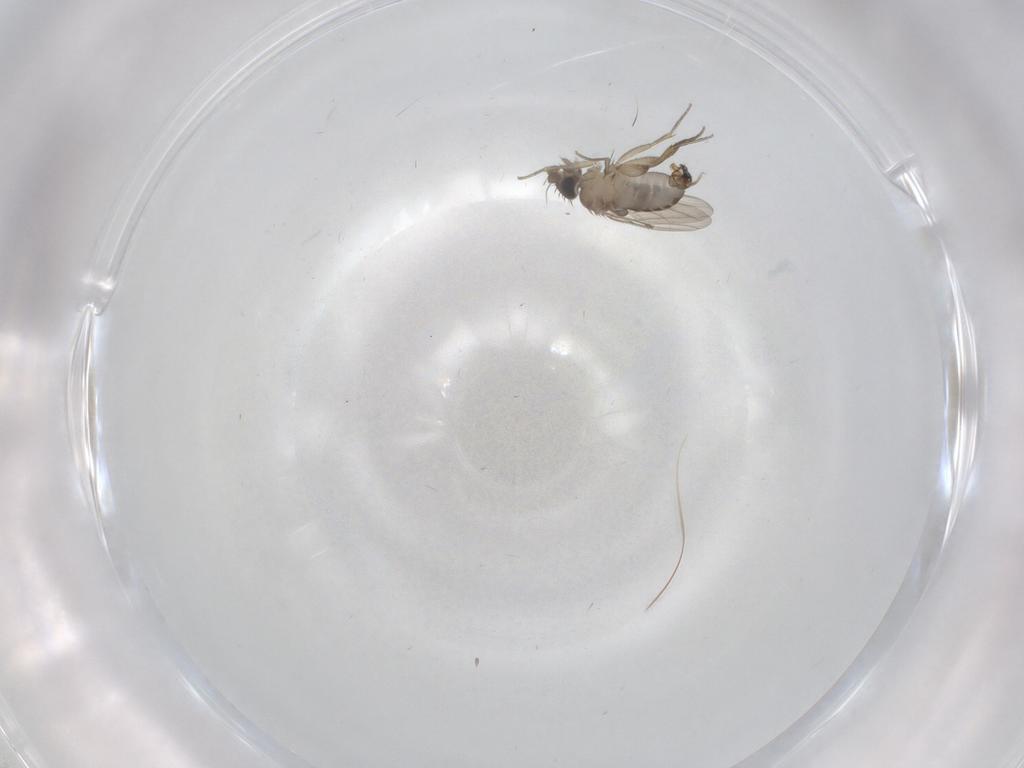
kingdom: Animalia
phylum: Arthropoda
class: Insecta
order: Diptera
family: Phoridae
